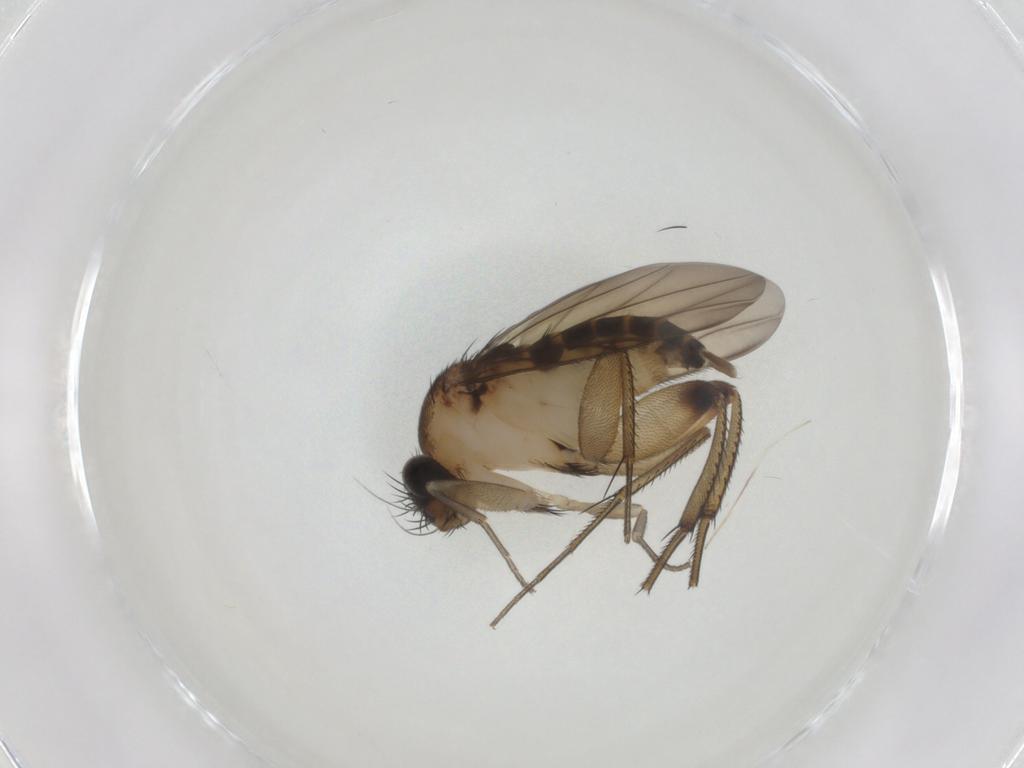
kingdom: Animalia
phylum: Arthropoda
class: Insecta
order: Diptera
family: Phoridae
